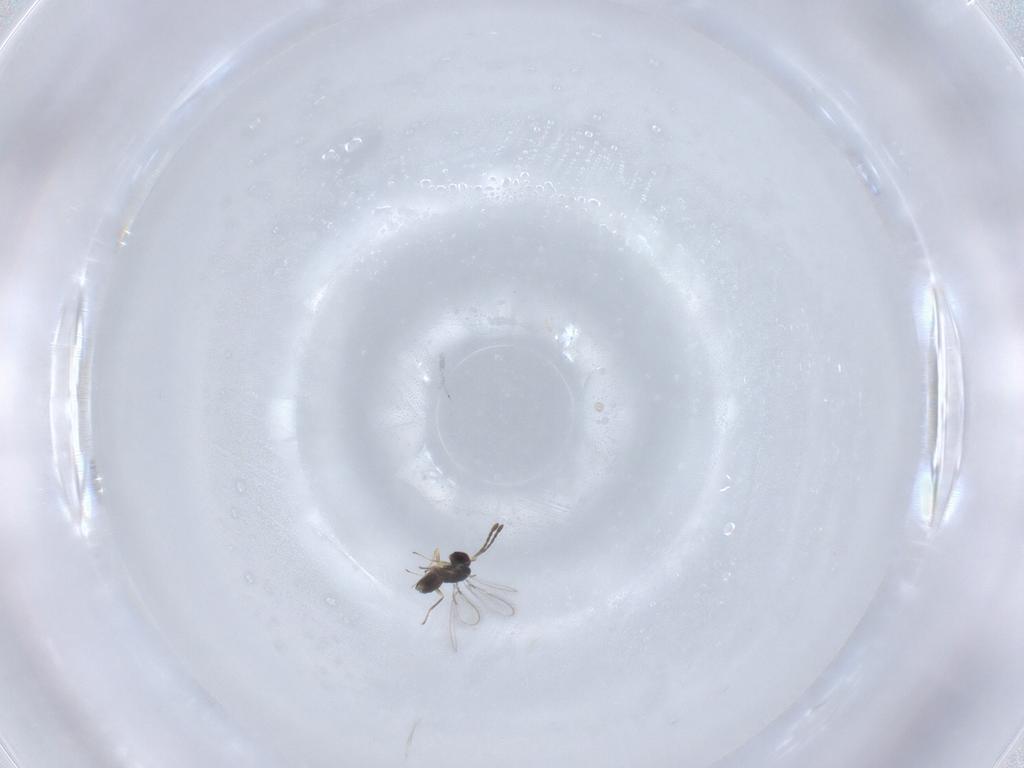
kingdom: Animalia
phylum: Arthropoda
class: Insecta
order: Hymenoptera
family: Mymaridae
